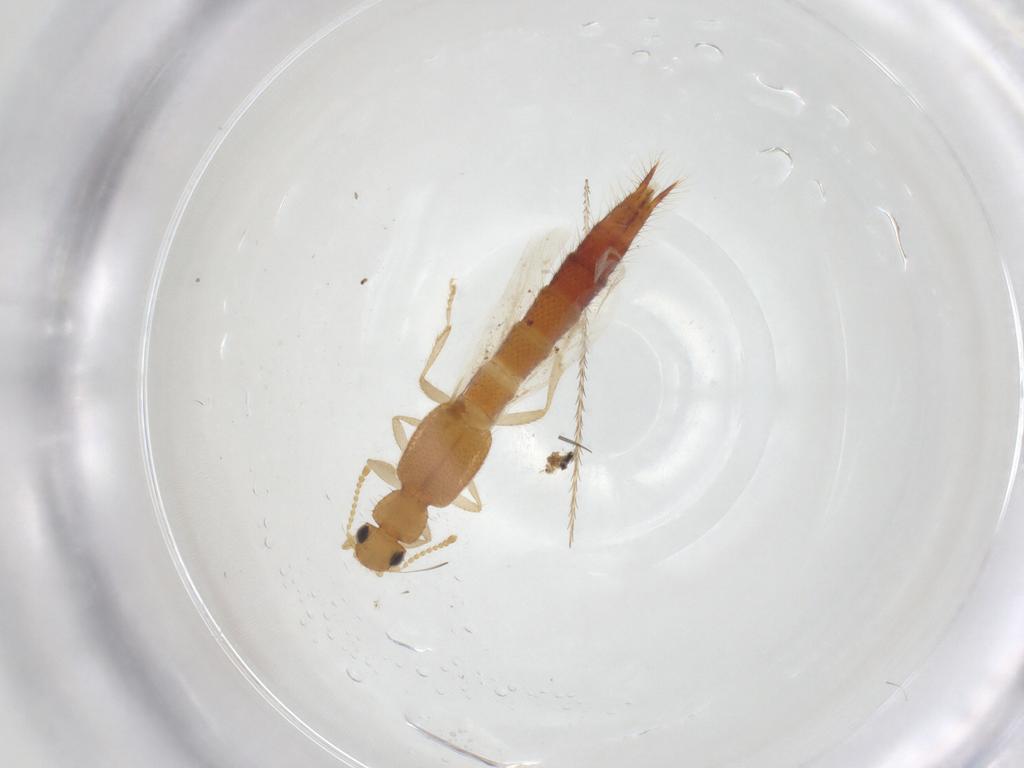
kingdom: Animalia
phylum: Arthropoda
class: Insecta
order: Coleoptera
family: Staphylinidae
